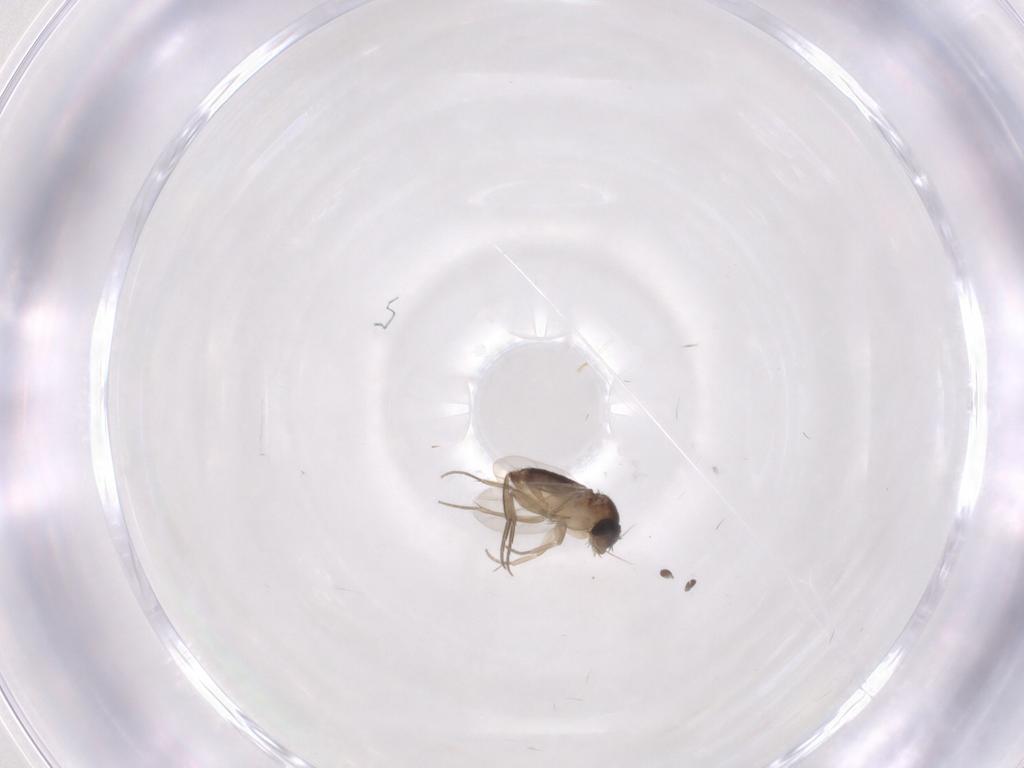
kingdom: Animalia
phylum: Arthropoda
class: Insecta
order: Diptera
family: Phoridae
